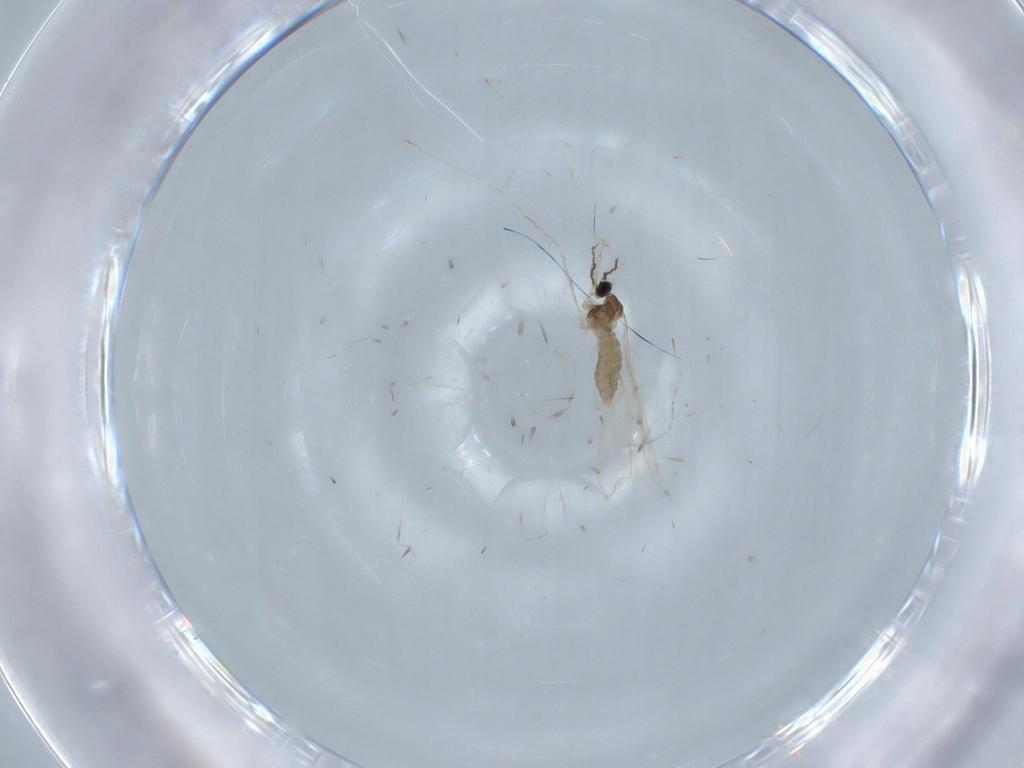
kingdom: Animalia
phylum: Arthropoda
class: Insecta
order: Diptera
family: Cecidomyiidae
